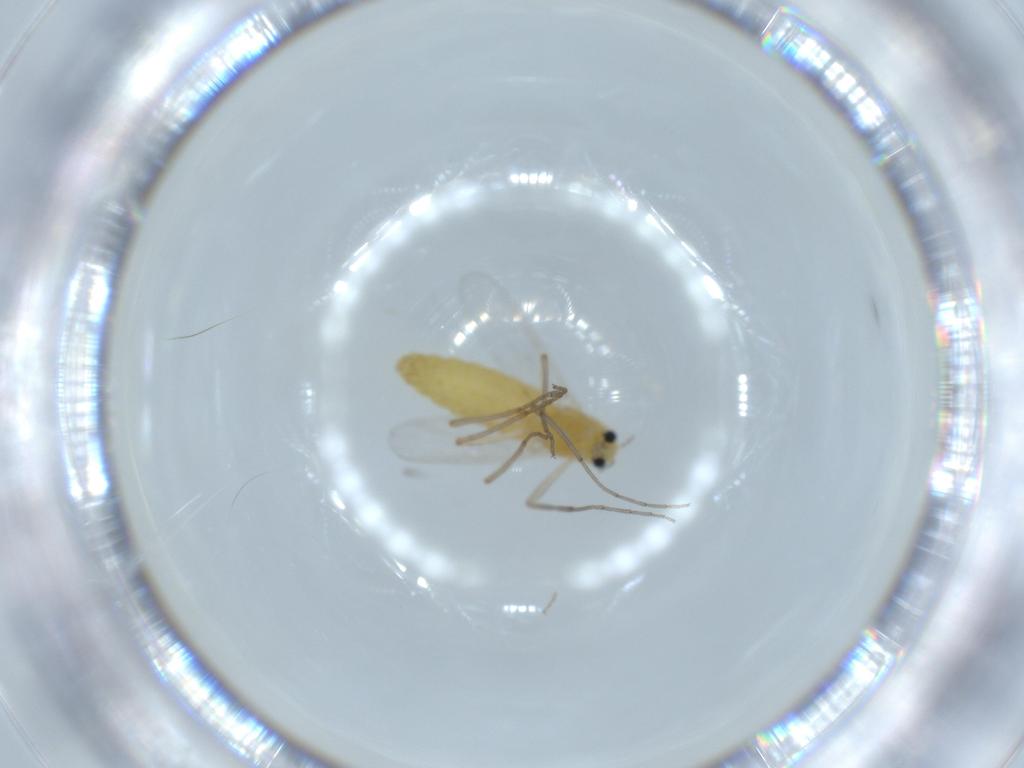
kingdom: Animalia
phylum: Arthropoda
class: Insecta
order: Diptera
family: Chironomidae
